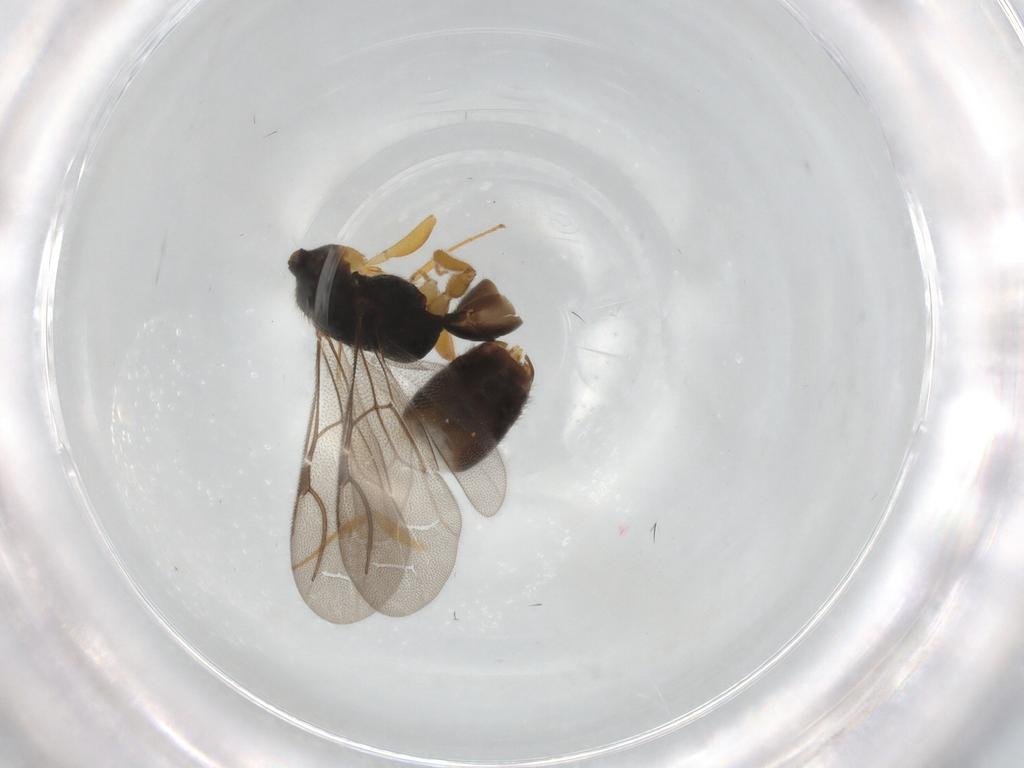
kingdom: Animalia
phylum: Arthropoda
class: Insecta
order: Hymenoptera
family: Bethylidae
